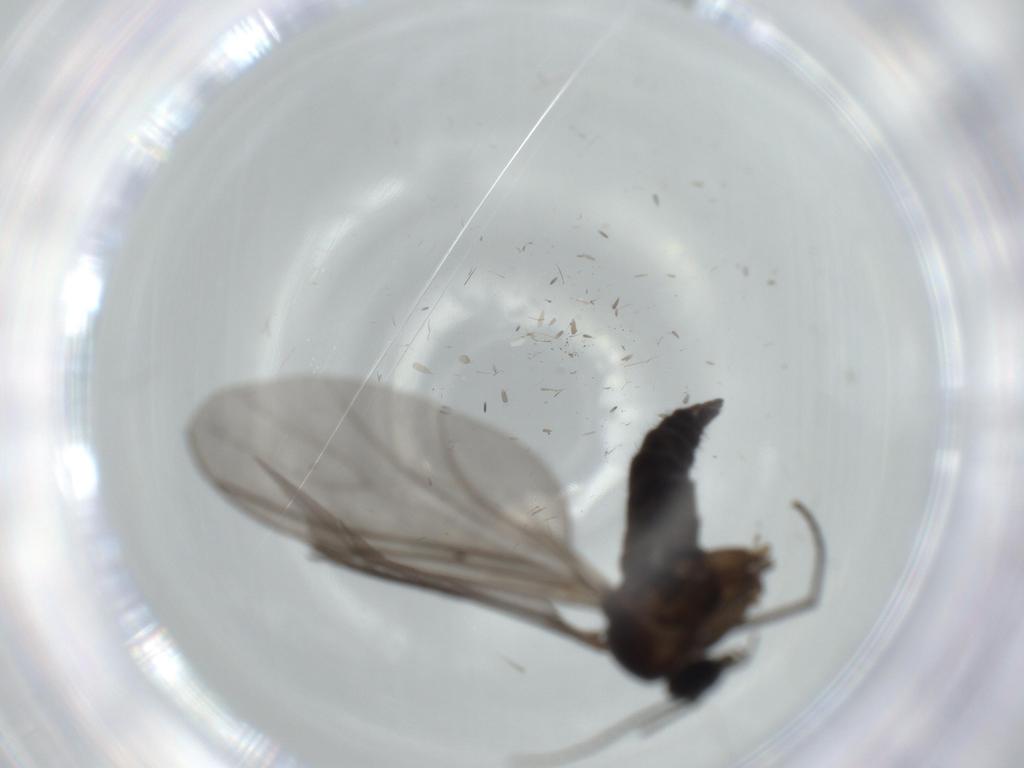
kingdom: Animalia
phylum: Arthropoda
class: Insecta
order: Diptera
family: Sciaridae
